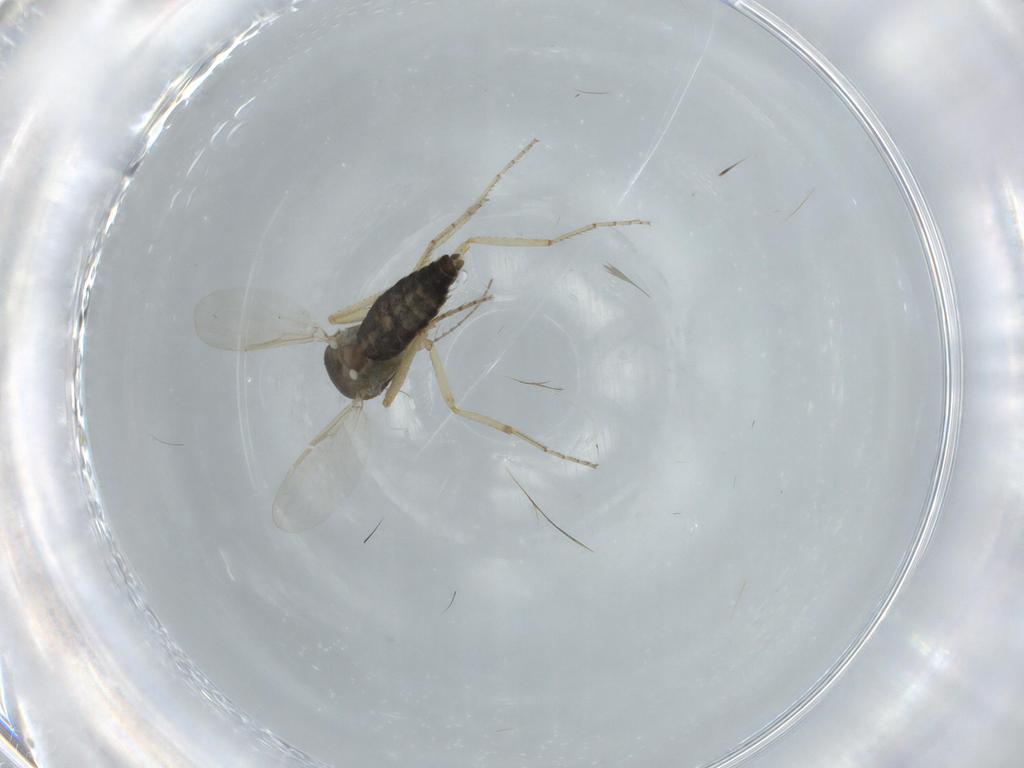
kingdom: Animalia
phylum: Arthropoda
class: Insecta
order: Diptera
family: Ceratopogonidae
